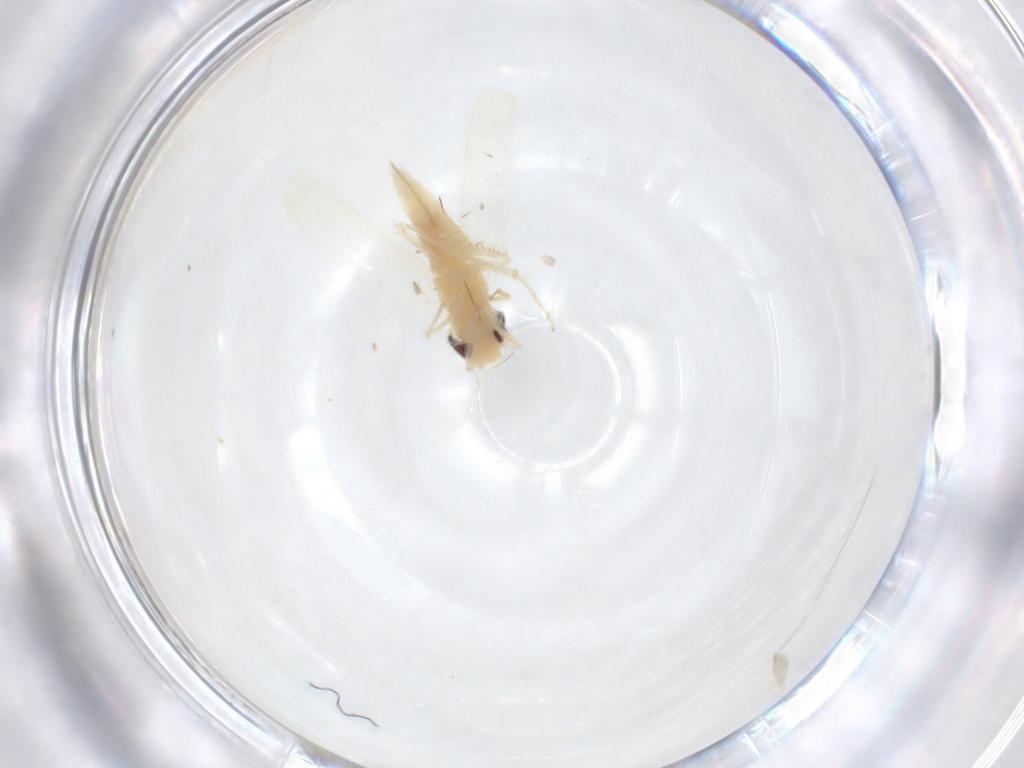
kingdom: Animalia
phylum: Arthropoda
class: Insecta
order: Hemiptera
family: Cicadellidae
